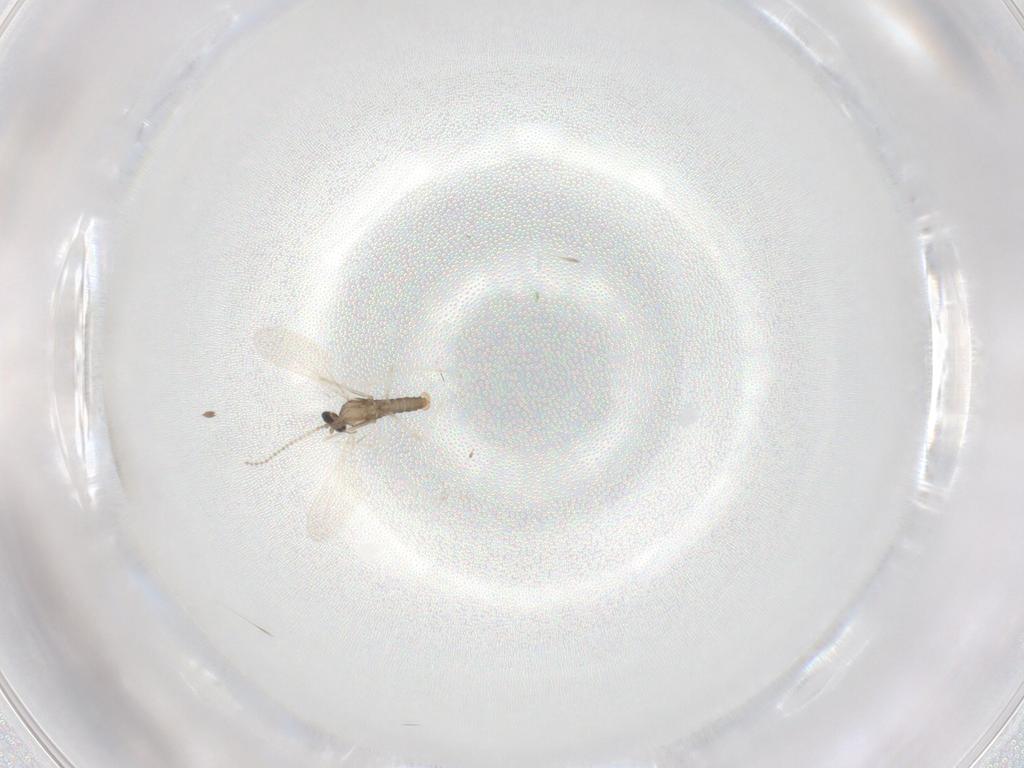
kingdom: Animalia
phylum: Arthropoda
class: Insecta
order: Diptera
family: Cecidomyiidae
